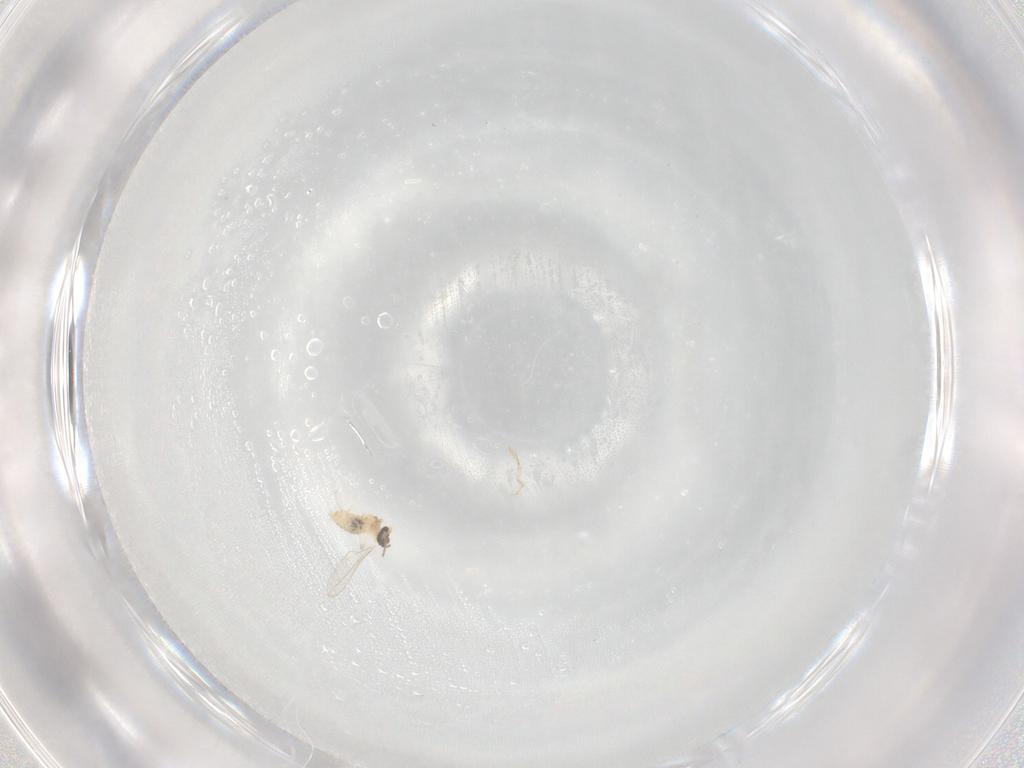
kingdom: Animalia
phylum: Arthropoda
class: Insecta
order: Diptera
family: Cecidomyiidae
